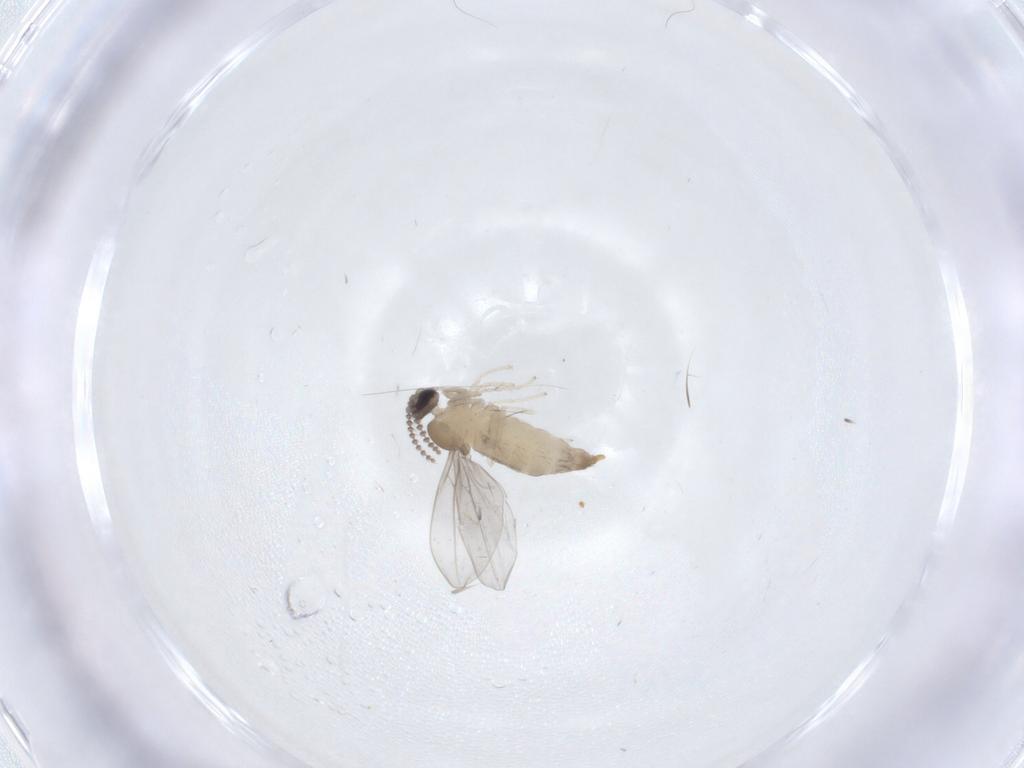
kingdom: Animalia
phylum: Arthropoda
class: Insecta
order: Diptera
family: Cecidomyiidae
